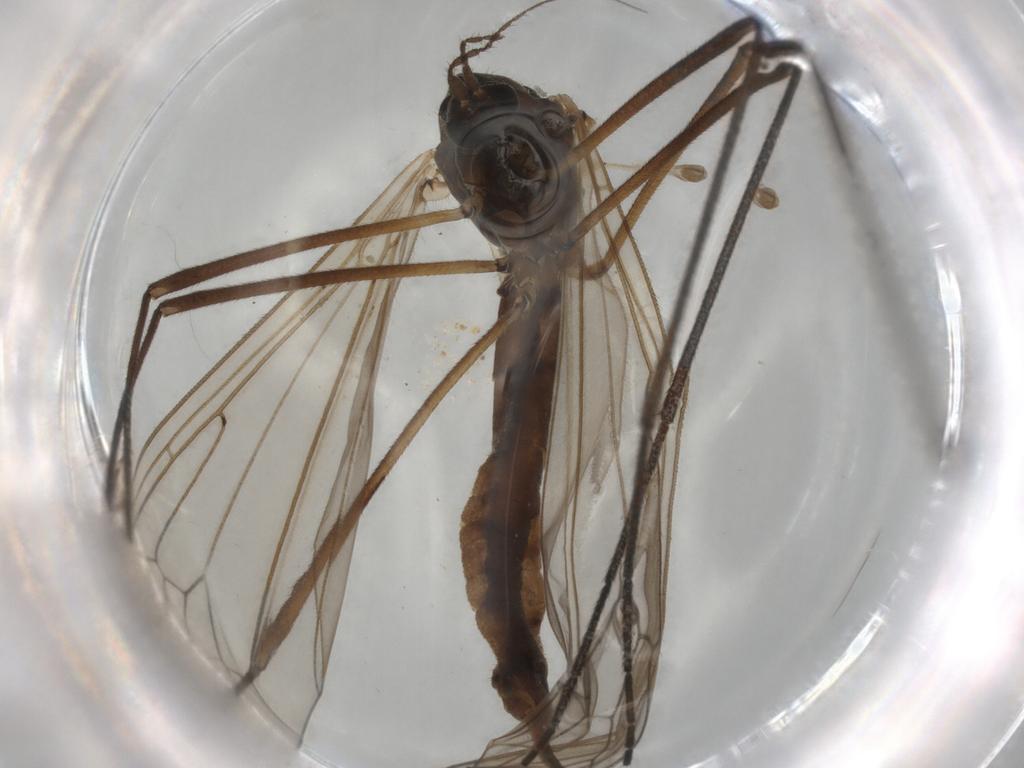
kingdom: Animalia
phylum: Arthropoda
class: Insecta
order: Diptera
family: Trichoceridae
